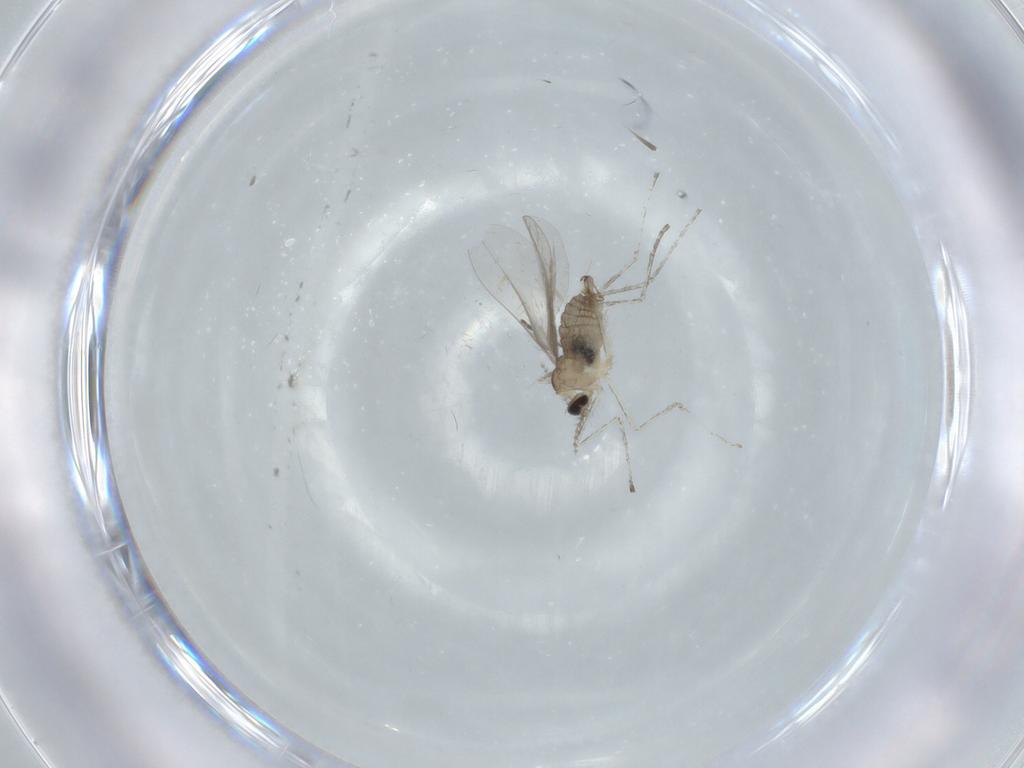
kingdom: Animalia
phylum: Arthropoda
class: Insecta
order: Diptera
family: Cecidomyiidae
